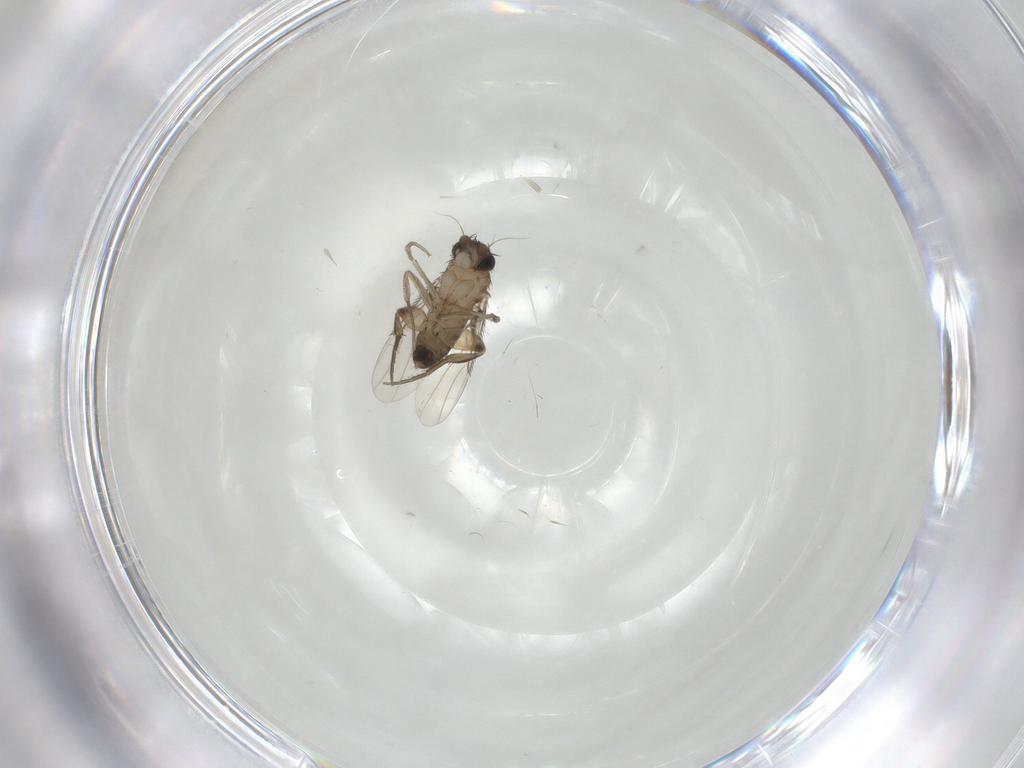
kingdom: Animalia
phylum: Arthropoda
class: Insecta
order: Diptera
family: Phoridae
